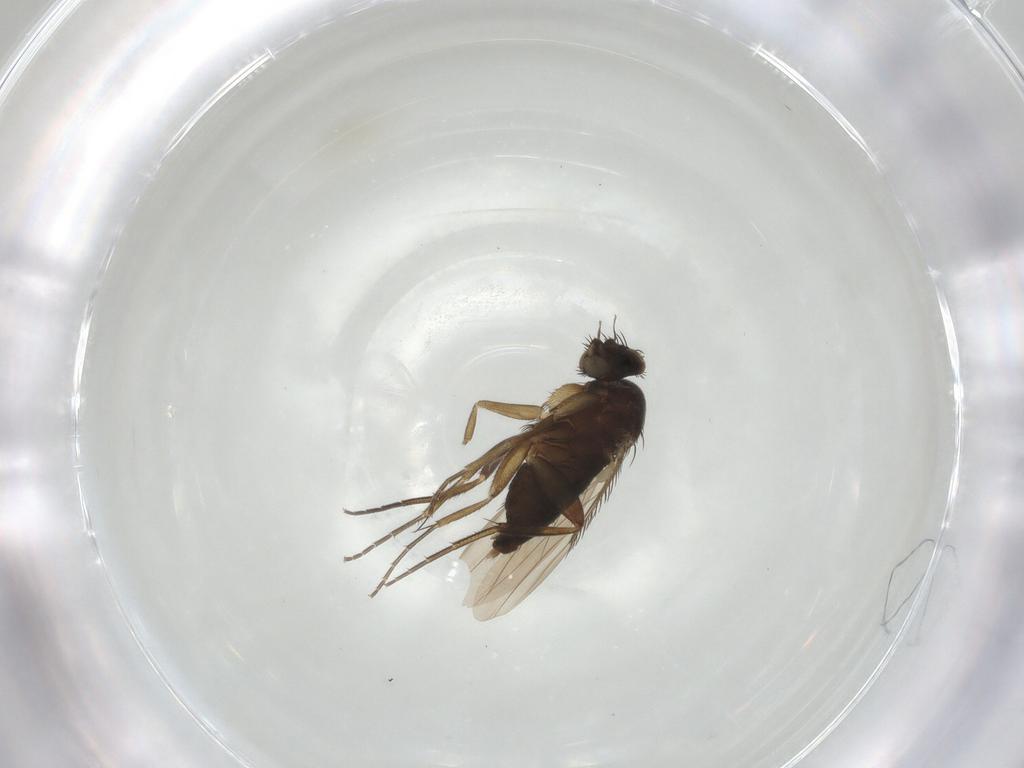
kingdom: Animalia
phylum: Arthropoda
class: Insecta
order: Diptera
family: Phoridae
